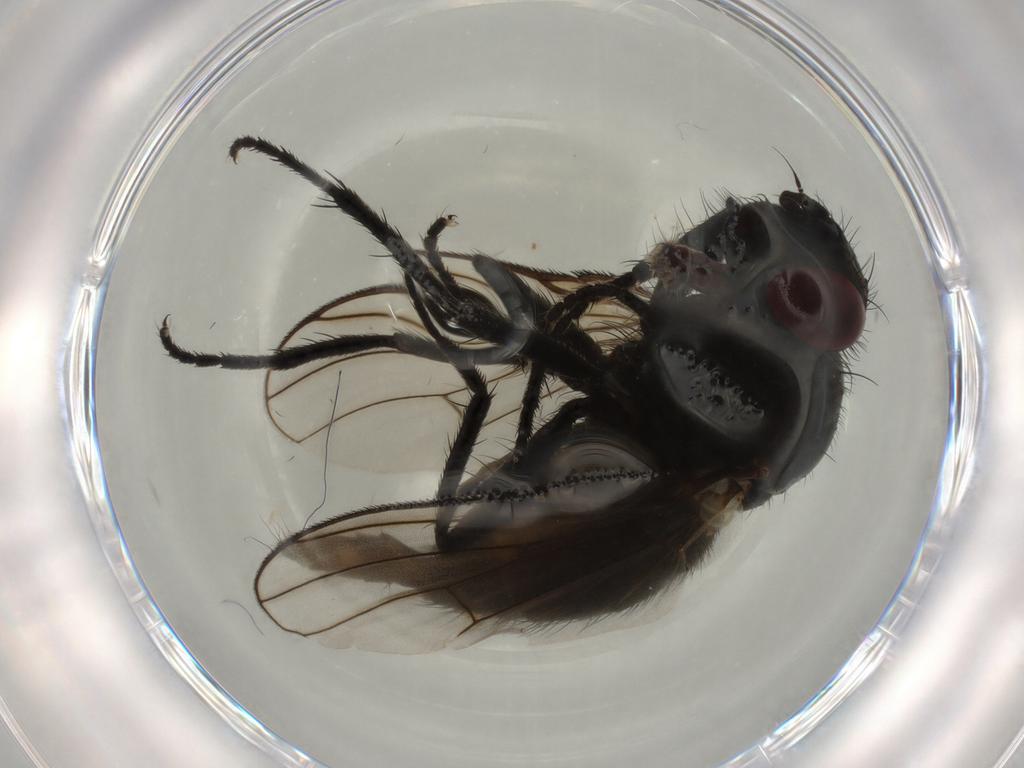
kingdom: Animalia
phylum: Arthropoda
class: Insecta
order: Diptera
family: Muscidae
